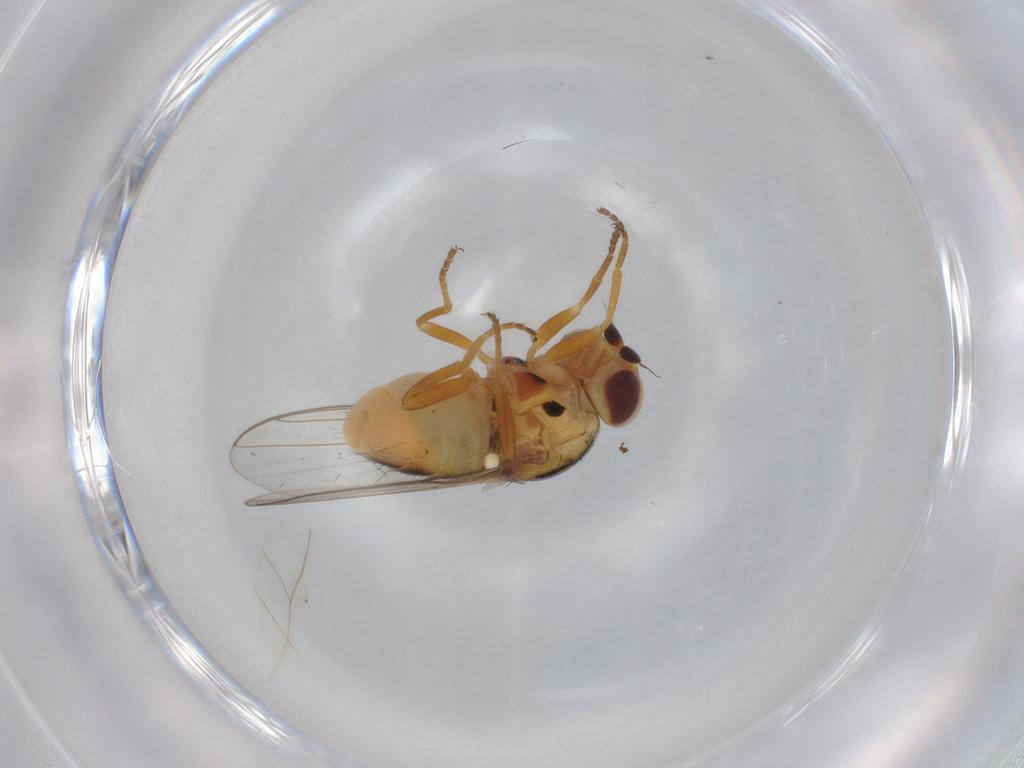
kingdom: Animalia
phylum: Arthropoda
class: Insecta
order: Diptera
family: Chloropidae
